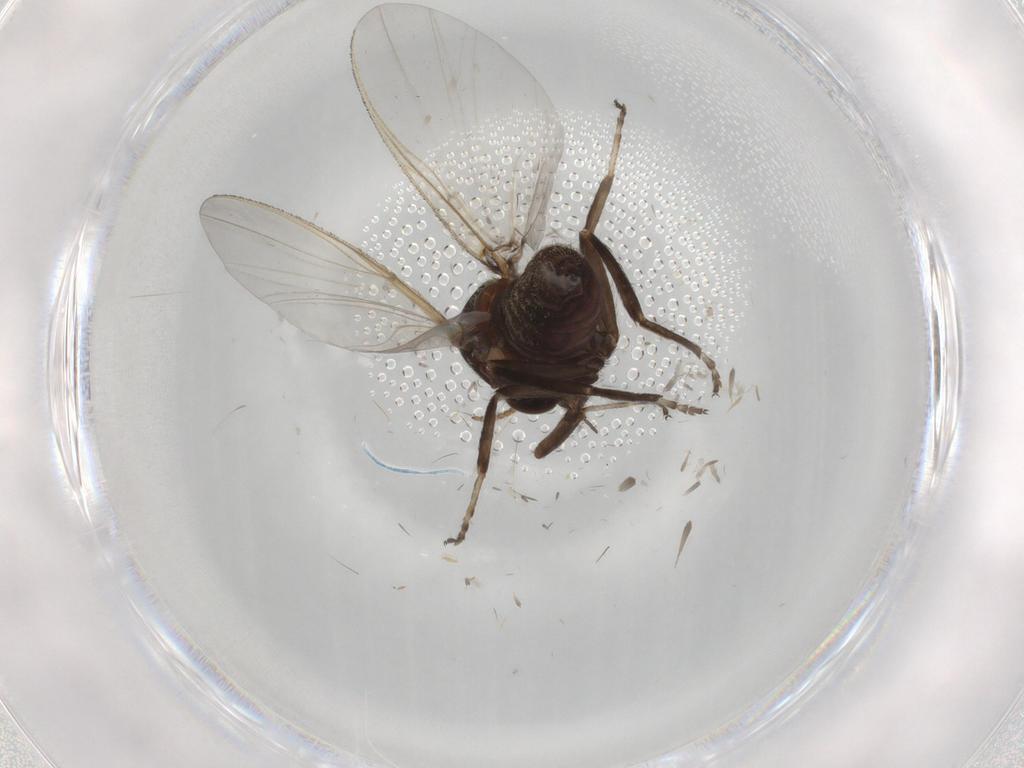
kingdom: Animalia
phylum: Arthropoda
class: Insecta
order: Diptera
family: Cecidomyiidae
